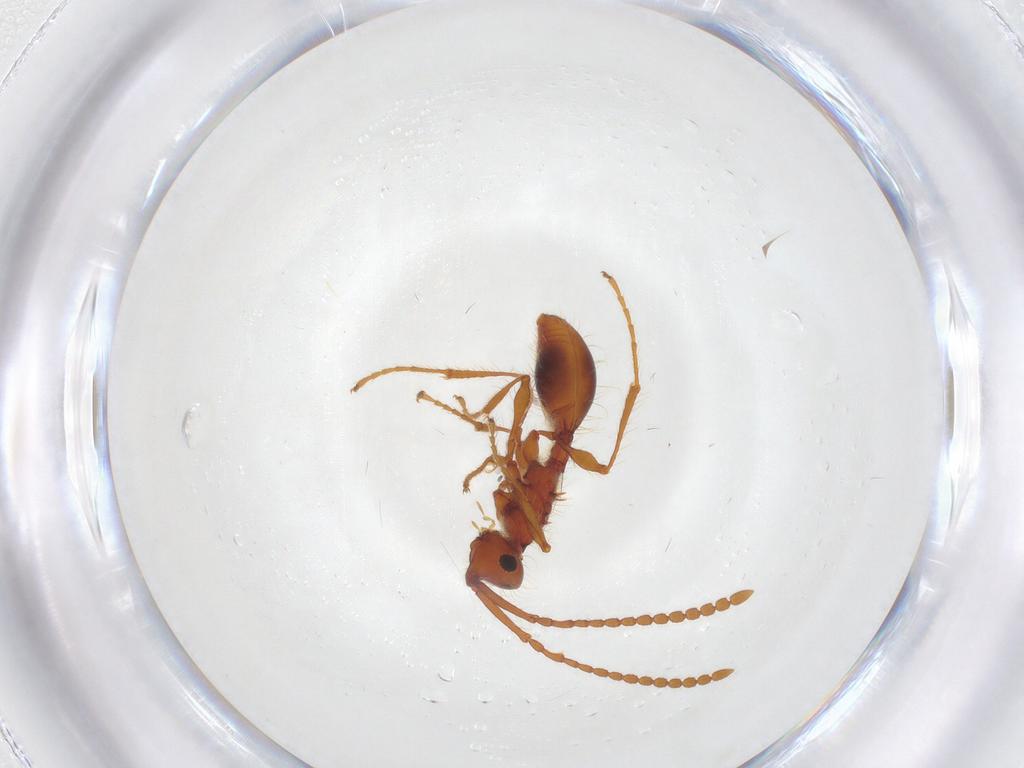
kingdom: Animalia
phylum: Arthropoda
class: Insecta
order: Hymenoptera
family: Diapriidae
